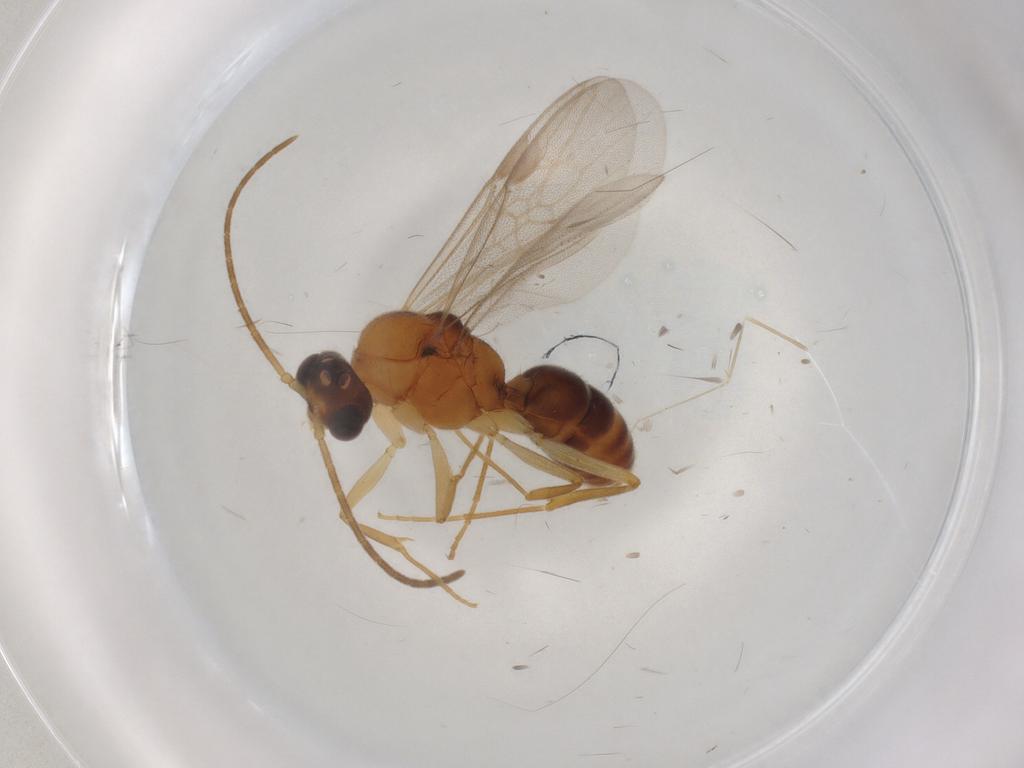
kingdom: Animalia
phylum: Arthropoda
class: Insecta
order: Hymenoptera
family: Formicidae
